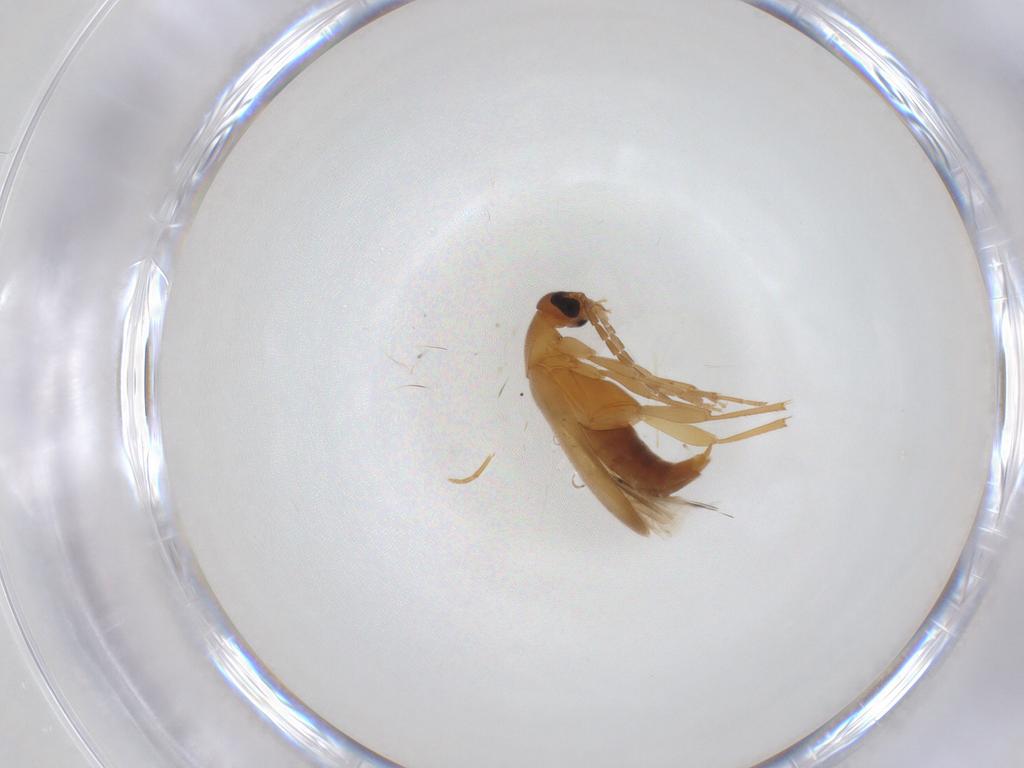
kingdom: Animalia
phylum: Arthropoda
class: Insecta
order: Coleoptera
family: Scraptiidae
